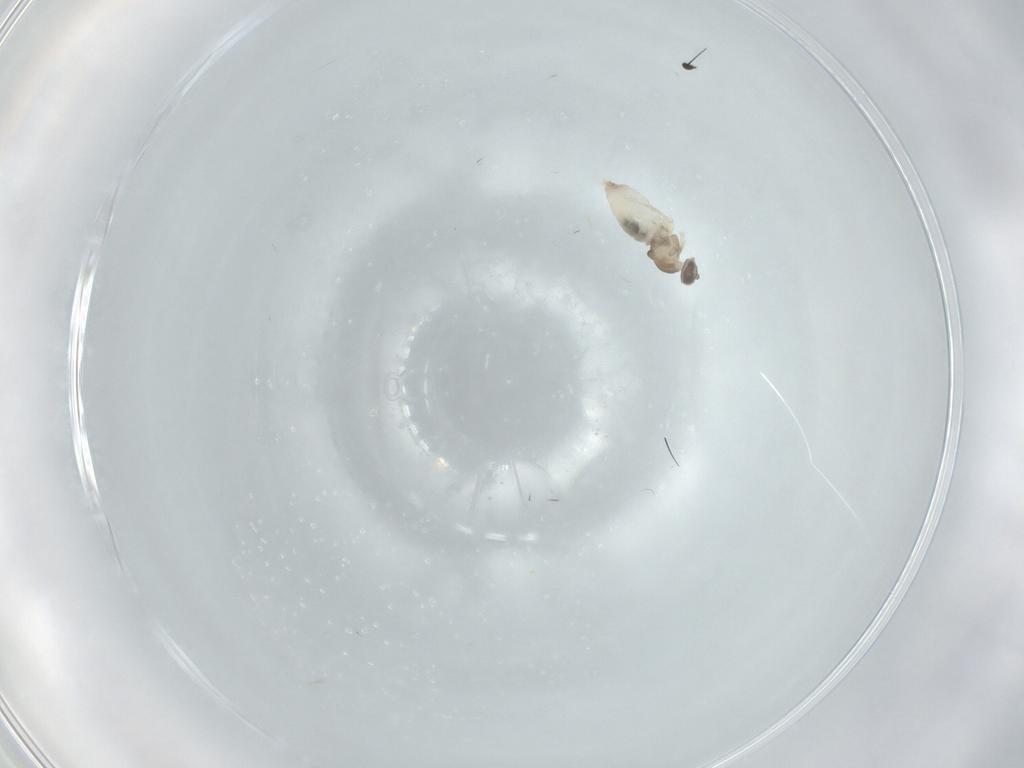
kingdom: Animalia
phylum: Arthropoda
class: Insecta
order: Diptera
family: Cecidomyiidae
